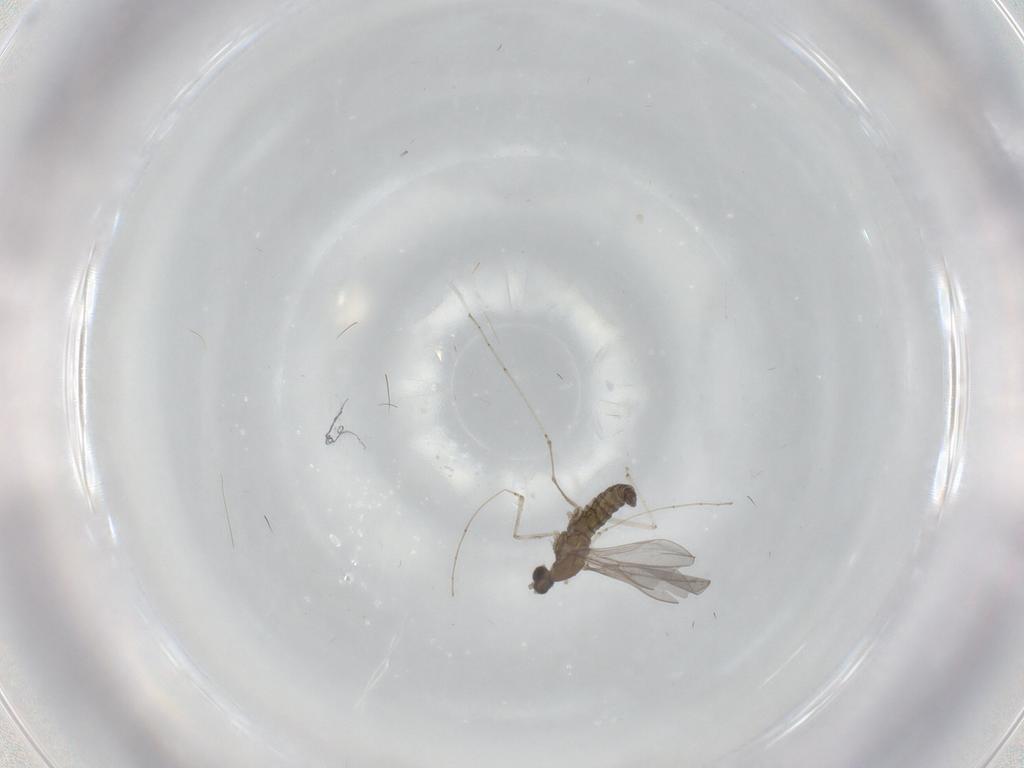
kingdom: Animalia
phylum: Arthropoda
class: Insecta
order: Diptera
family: Cecidomyiidae
